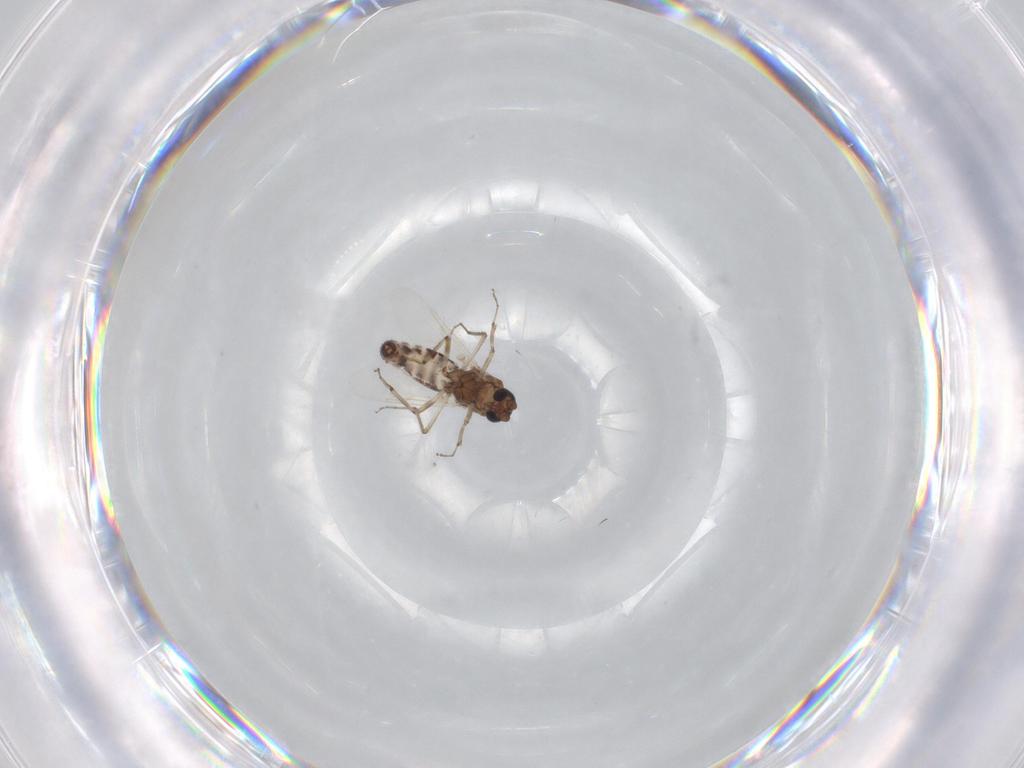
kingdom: Animalia
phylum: Arthropoda
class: Insecta
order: Diptera
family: Ceratopogonidae
